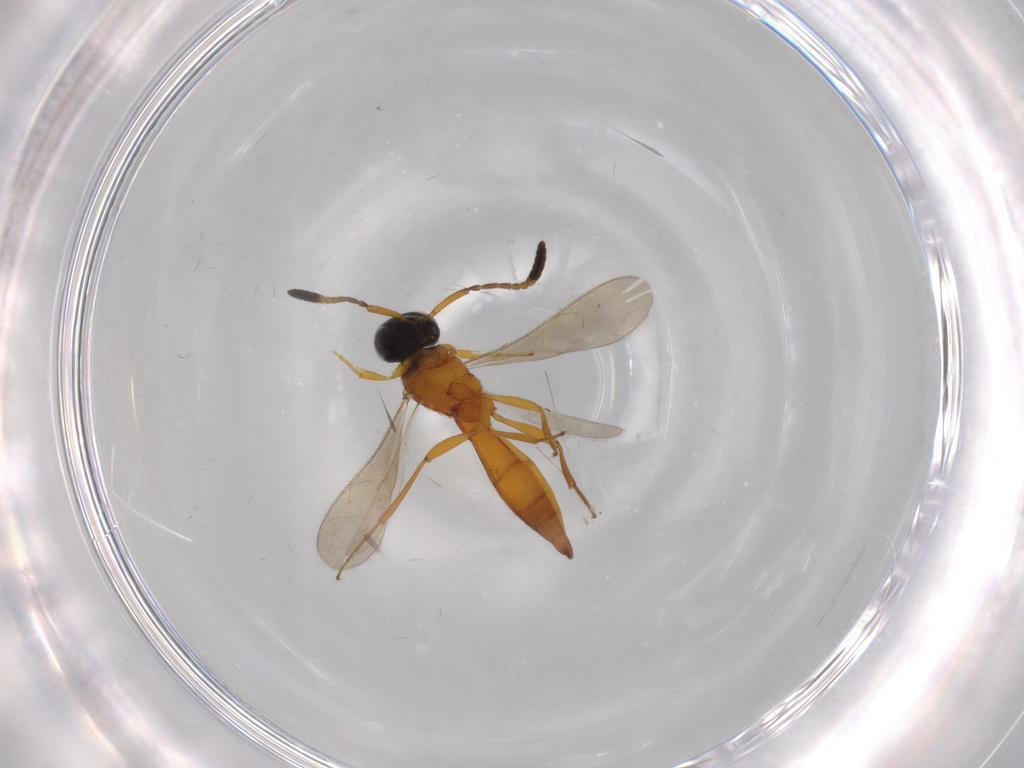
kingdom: Animalia
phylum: Arthropoda
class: Insecta
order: Hymenoptera
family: Scelionidae
